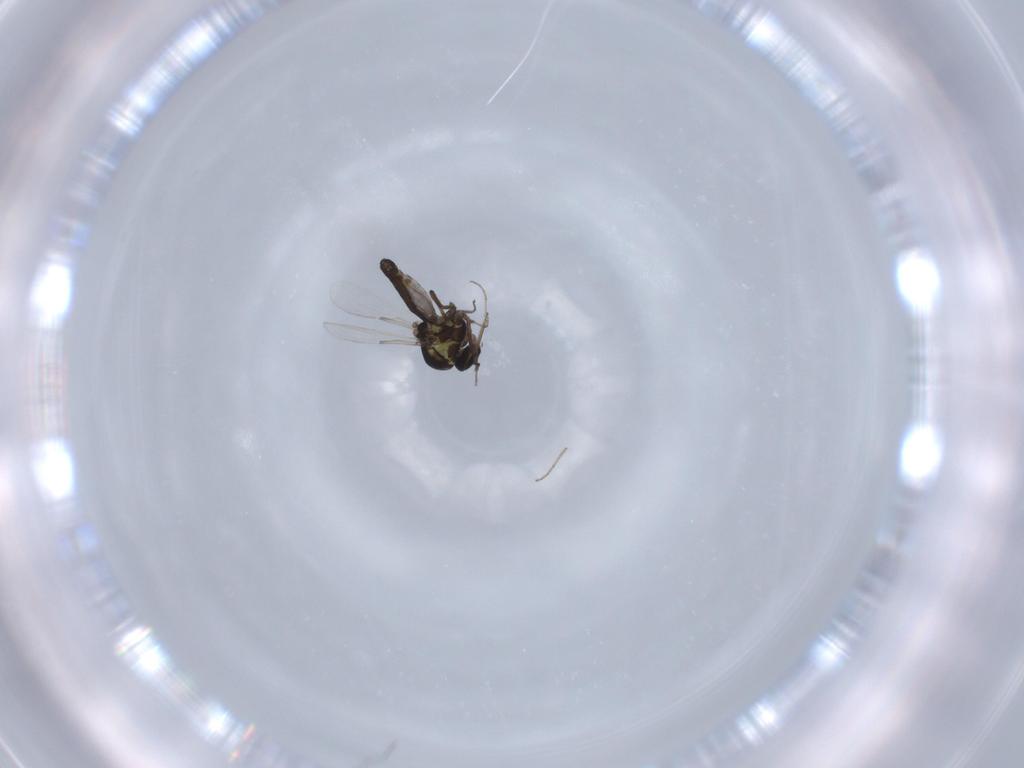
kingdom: Animalia
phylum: Arthropoda
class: Insecta
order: Diptera
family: Ceratopogonidae
